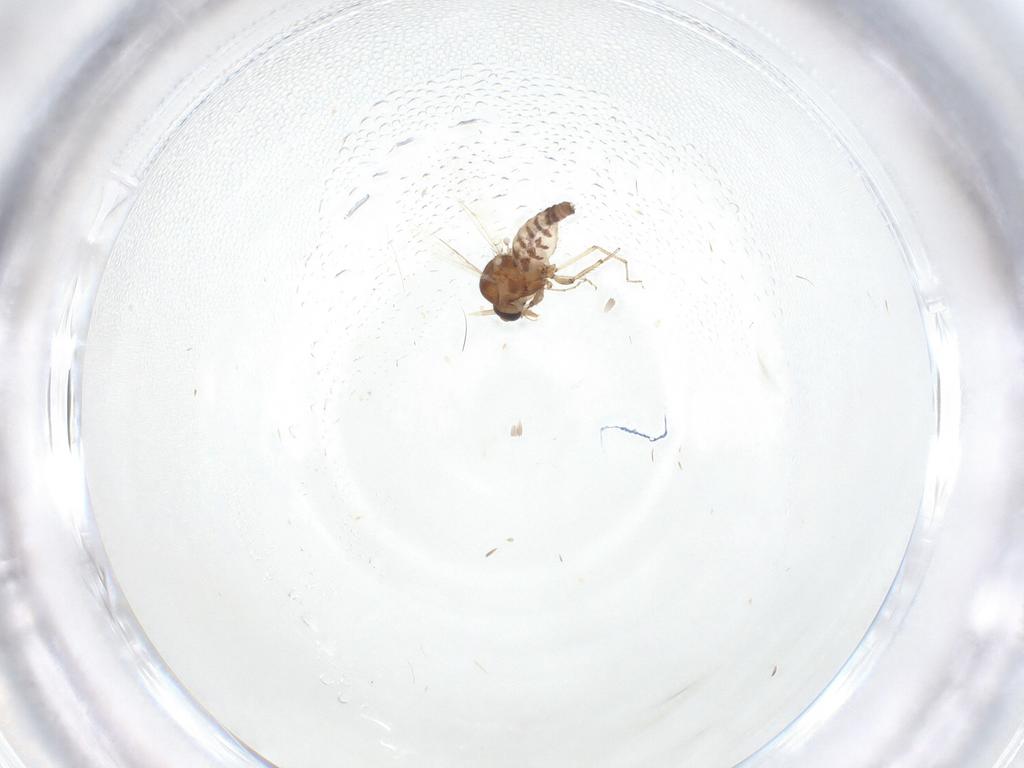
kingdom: Animalia
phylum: Arthropoda
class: Insecta
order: Diptera
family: Ceratopogonidae
